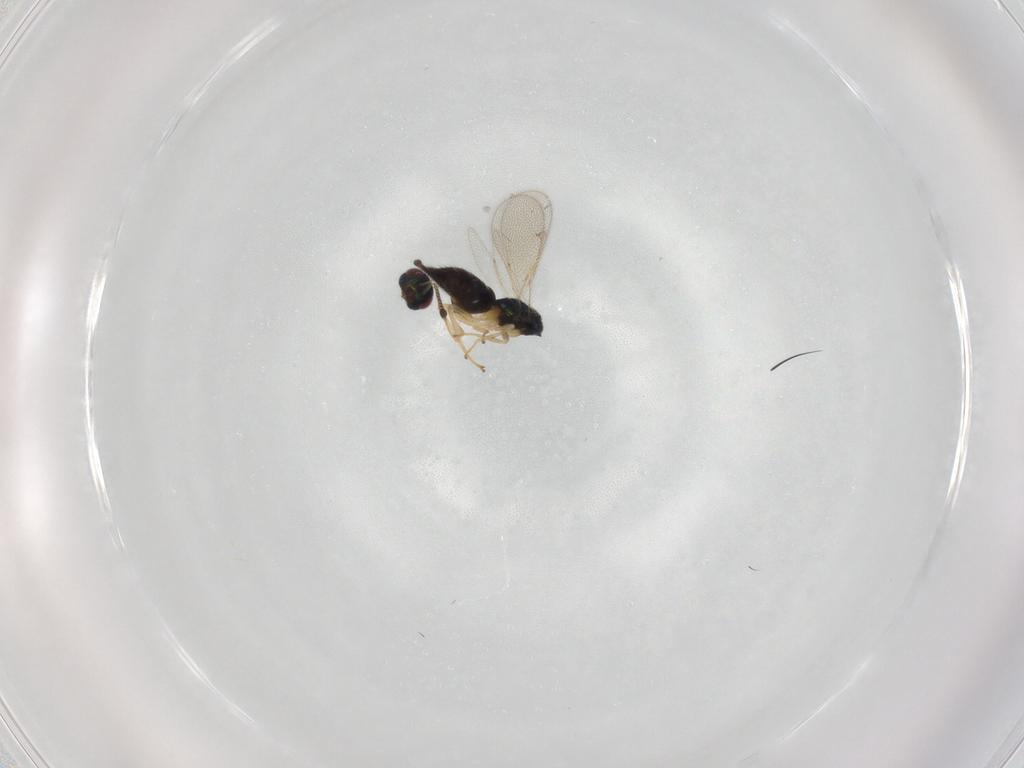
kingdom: Animalia
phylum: Arthropoda
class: Insecta
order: Hymenoptera
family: Tetracampidae
